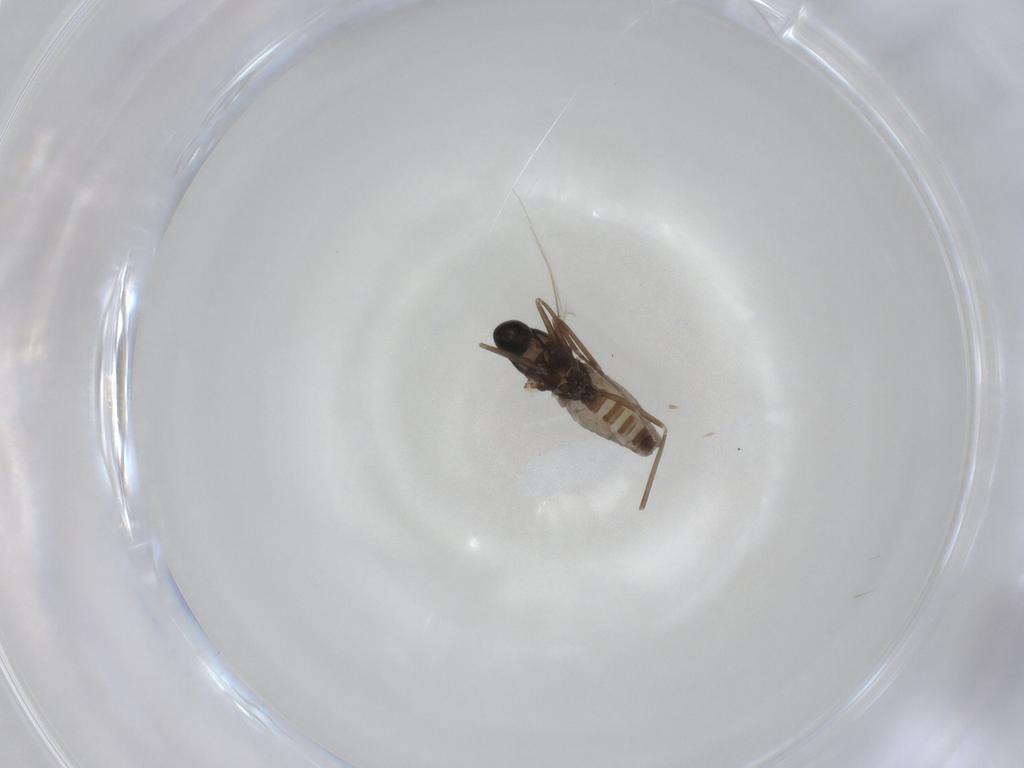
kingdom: Animalia
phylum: Arthropoda
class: Insecta
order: Diptera
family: Cecidomyiidae
